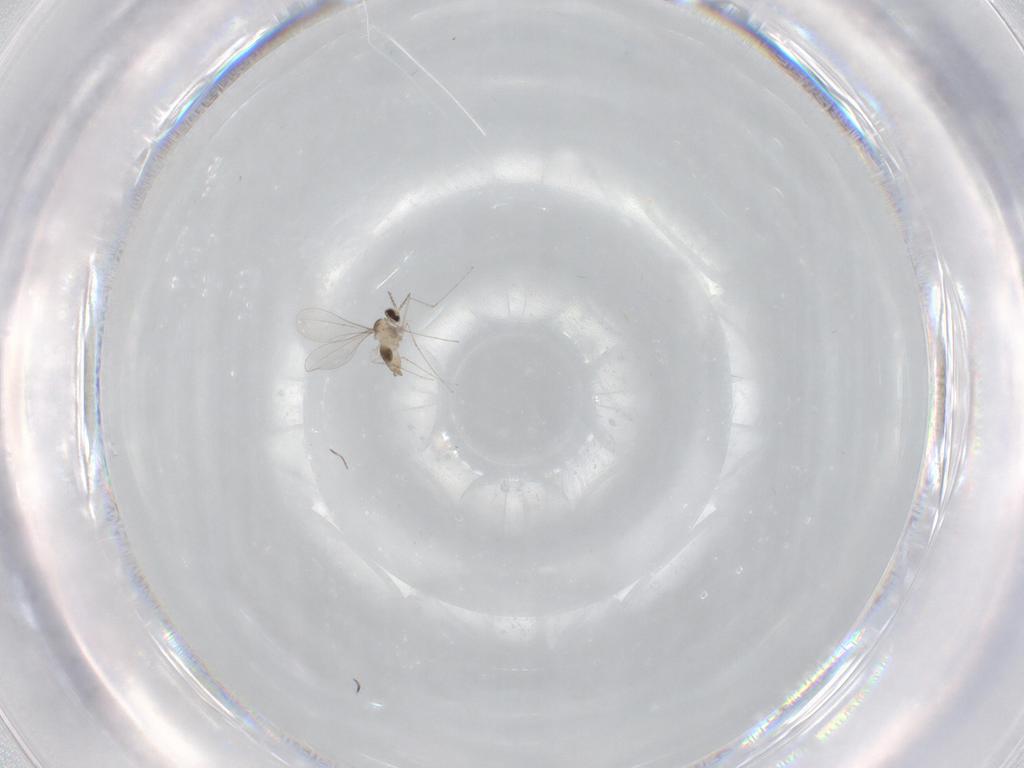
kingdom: Animalia
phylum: Arthropoda
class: Insecta
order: Diptera
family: Cecidomyiidae
